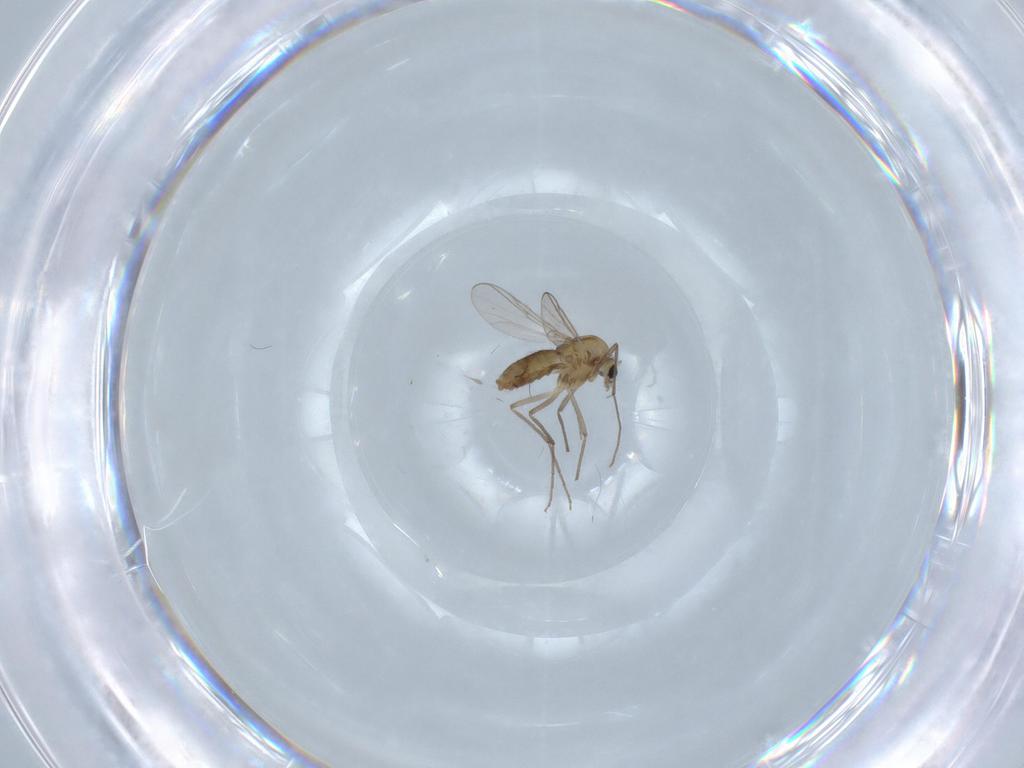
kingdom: Animalia
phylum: Arthropoda
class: Insecta
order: Diptera
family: Chironomidae
